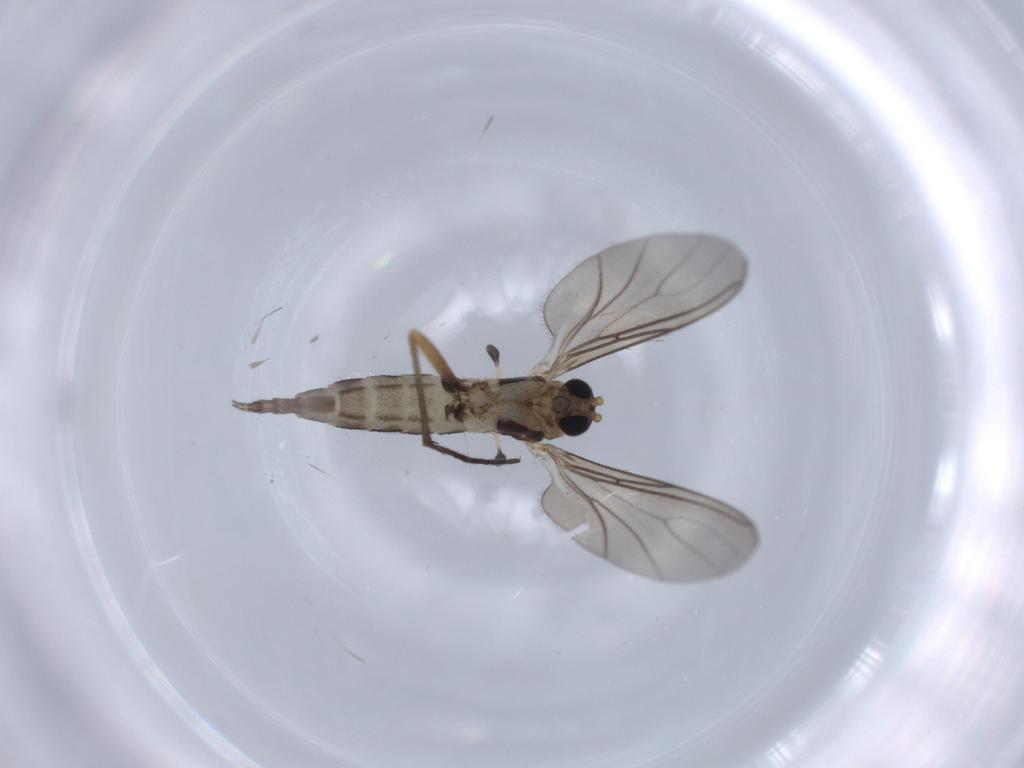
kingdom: Animalia
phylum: Arthropoda
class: Insecta
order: Diptera
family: Sciaridae
